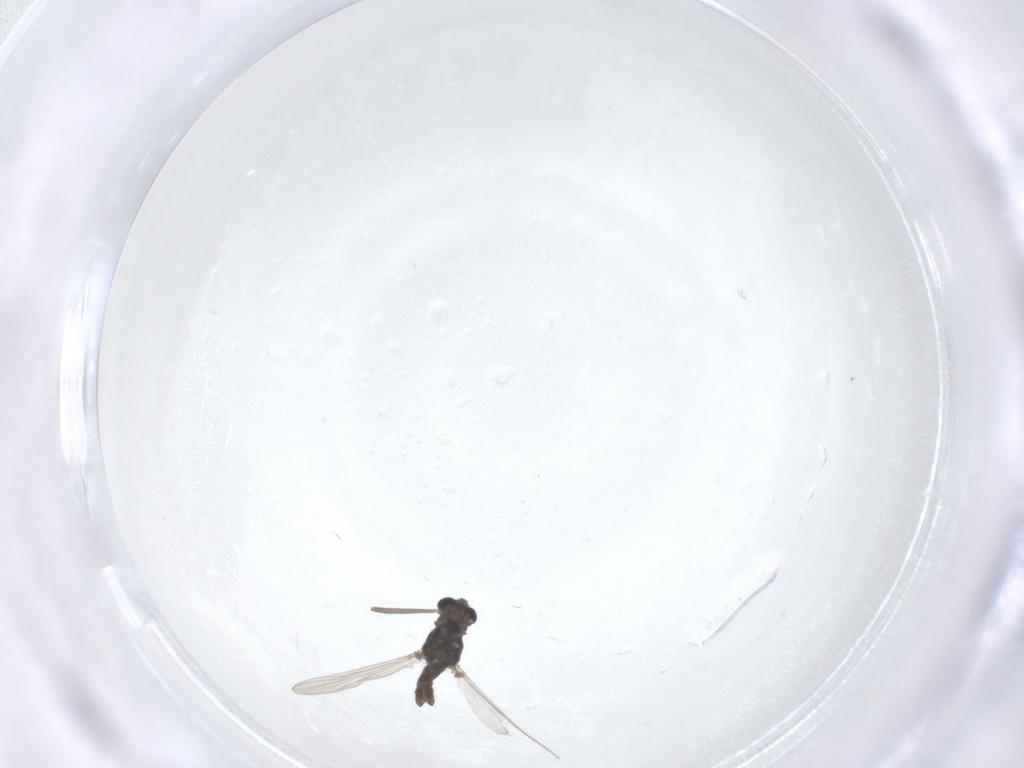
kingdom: Animalia
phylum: Arthropoda
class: Insecta
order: Diptera
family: Chironomidae
